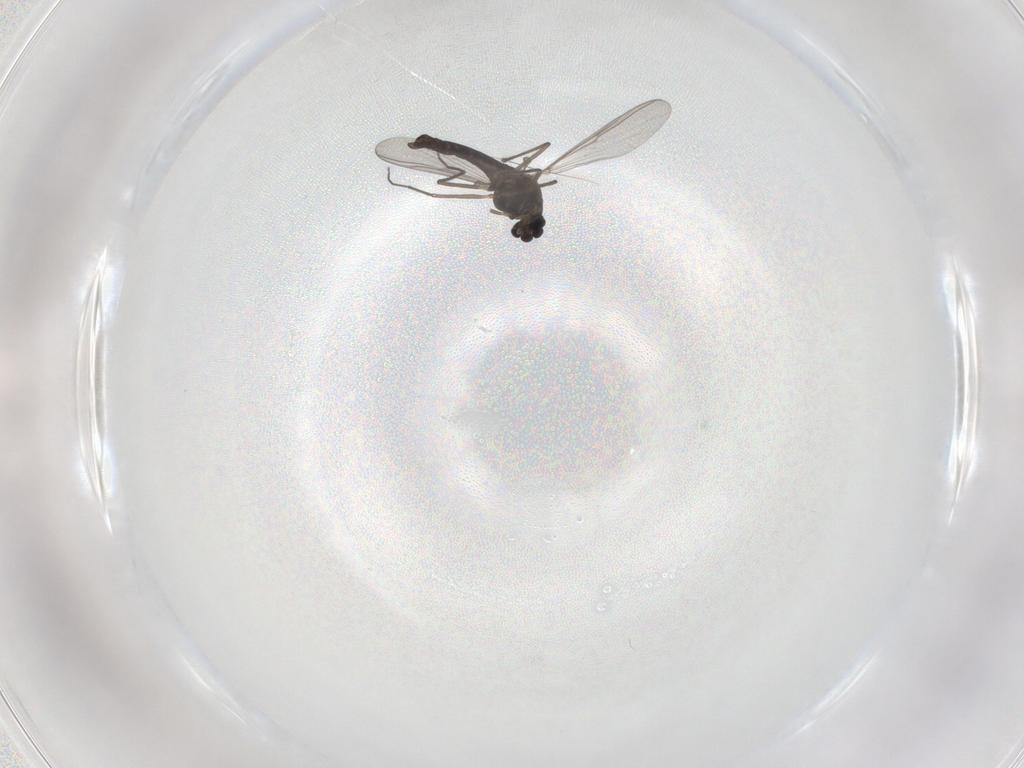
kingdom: Animalia
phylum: Arthropoda
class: Insecta
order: Diptera
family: Chironomidae
